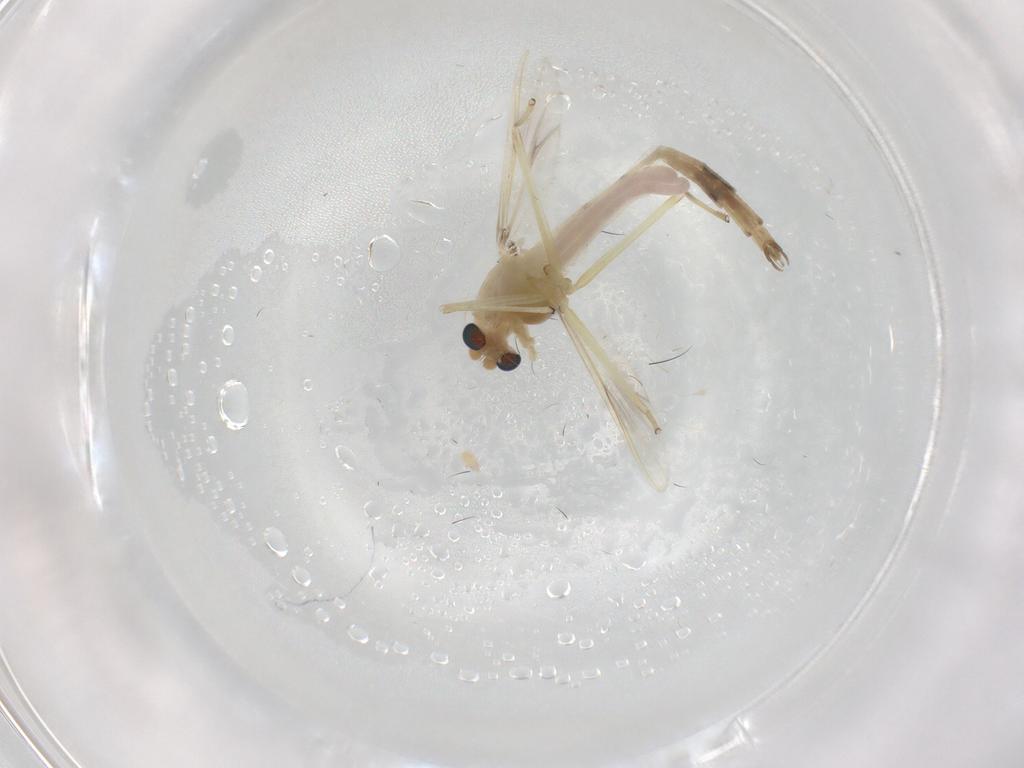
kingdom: Animalia
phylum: Arthropoda
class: Insecta
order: Diptera
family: Chironomidae
